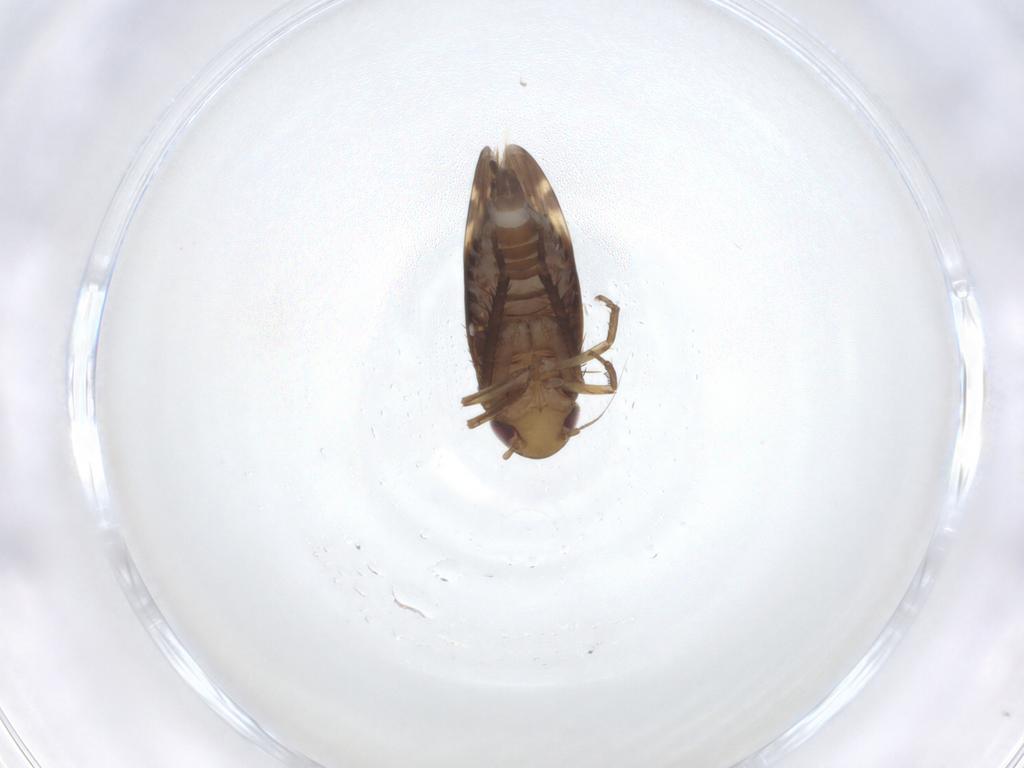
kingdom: Animalia
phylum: Arthropoda
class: Insecta
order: Hemiptera
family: Cicadellidae
